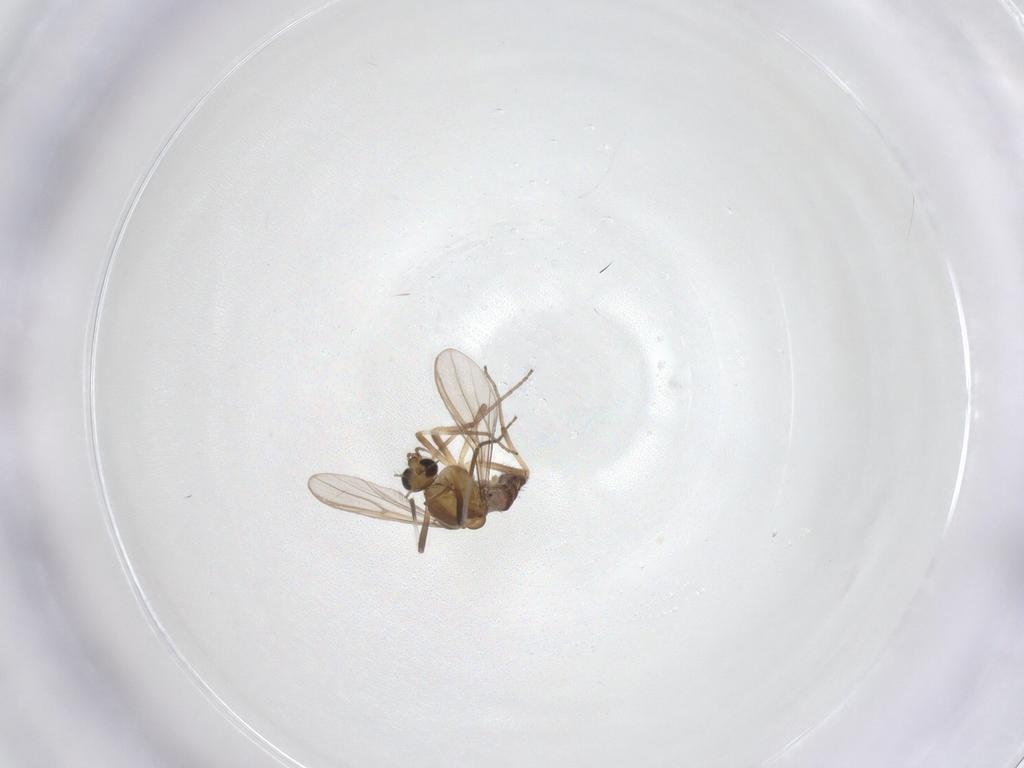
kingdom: Animalia
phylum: Arthropoda
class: Insecta
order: Diptera
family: Chironomidae
